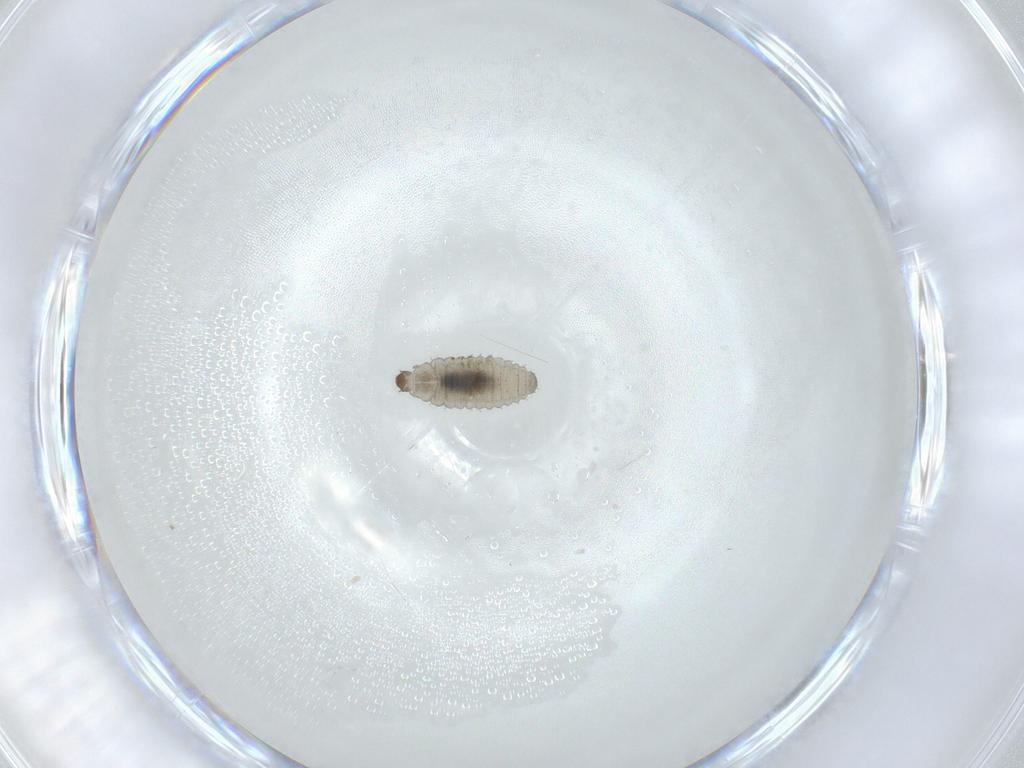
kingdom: Animalia
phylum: Arthropoda
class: Insecta
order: Coleoptera
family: Corylophidae
